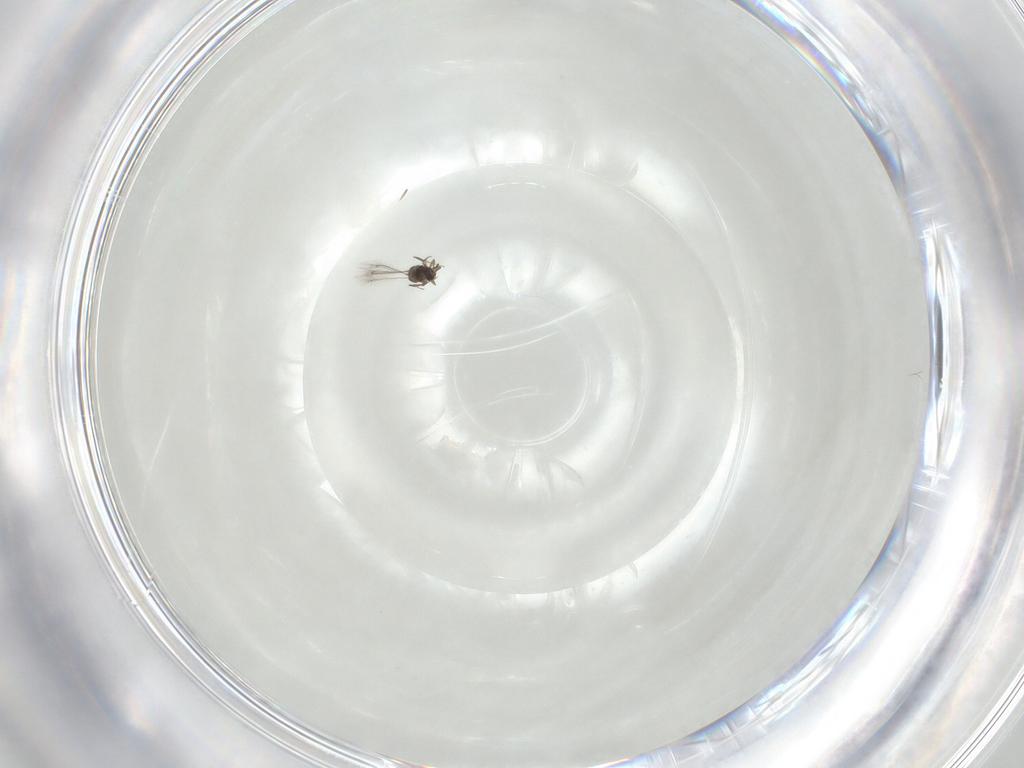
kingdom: Animalia
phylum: Arthropoda
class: Insecta
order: Hymenoptera
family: Mymaridae
